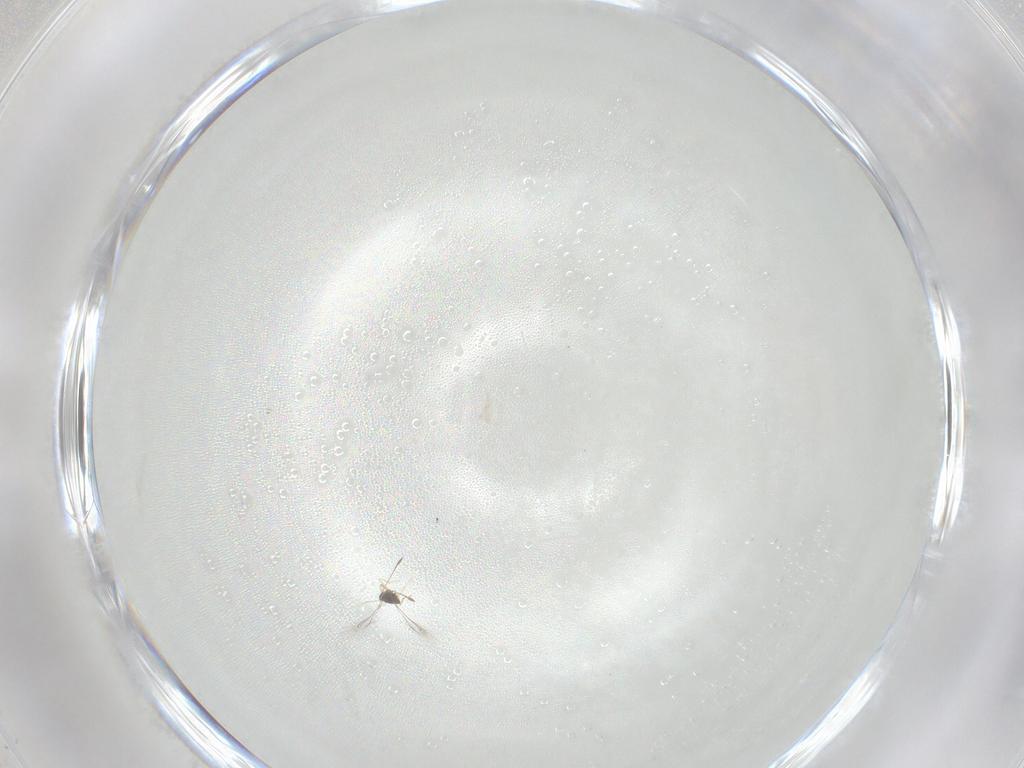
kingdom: Animalia
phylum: Arthropoda
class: Insecta
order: Hymenoptera
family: Mymaridae
